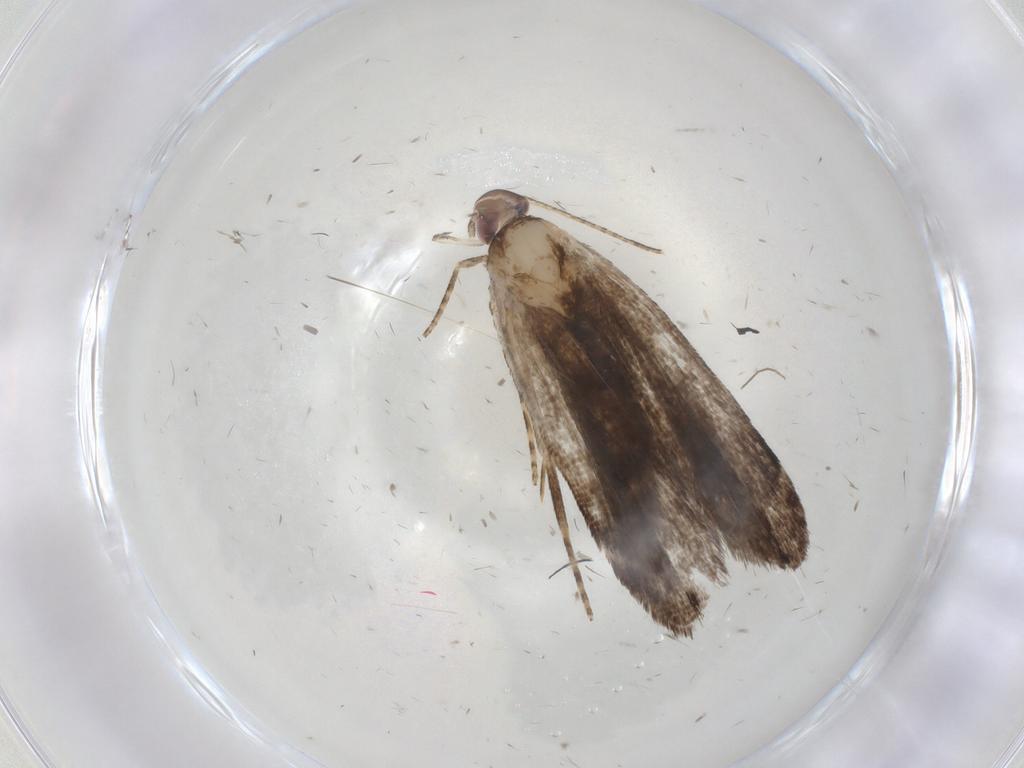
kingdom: Animalia
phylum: Arthropoda
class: Insecta
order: Lepidoptera
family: Gelechiidae
